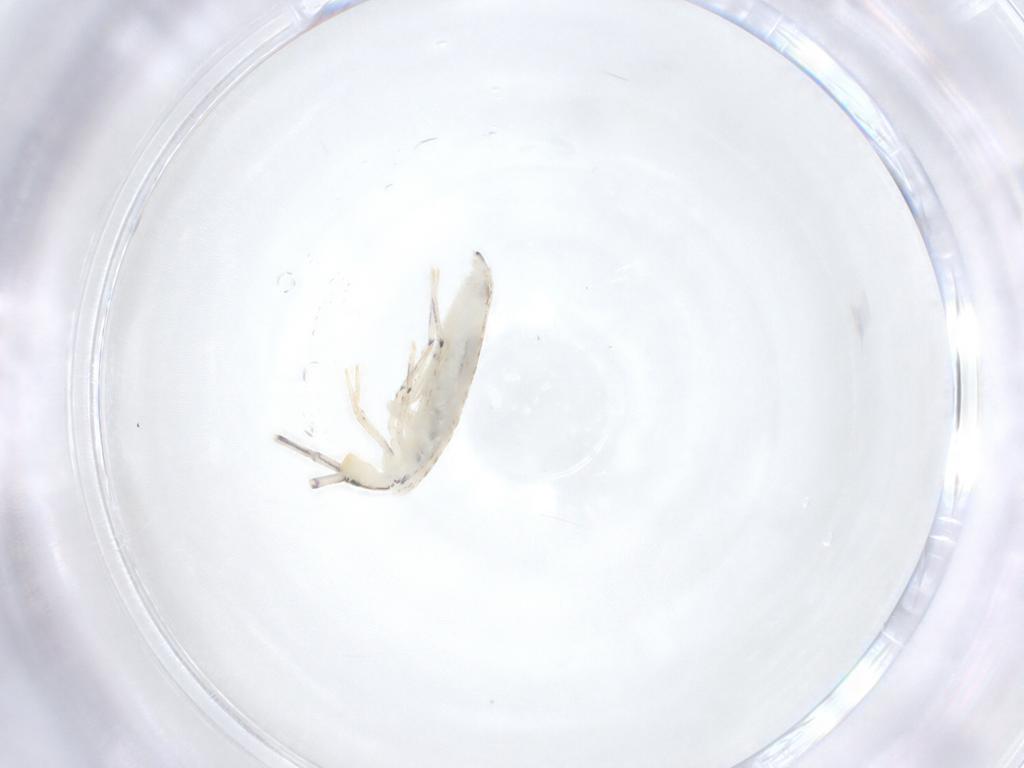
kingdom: Animalia
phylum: Arthropoda
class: Collembola
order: Entomobryomorpha
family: Entomobryidae
